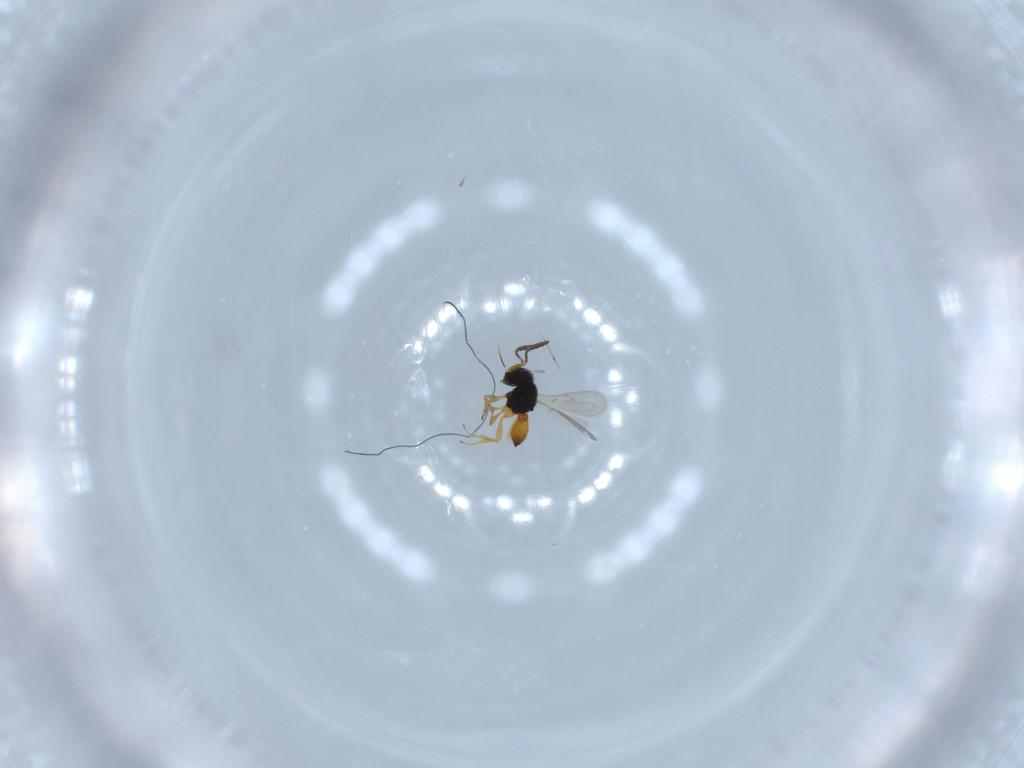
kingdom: Animalia
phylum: Arthropoda
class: Insecta
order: Hymenoptera
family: Scelionidae
